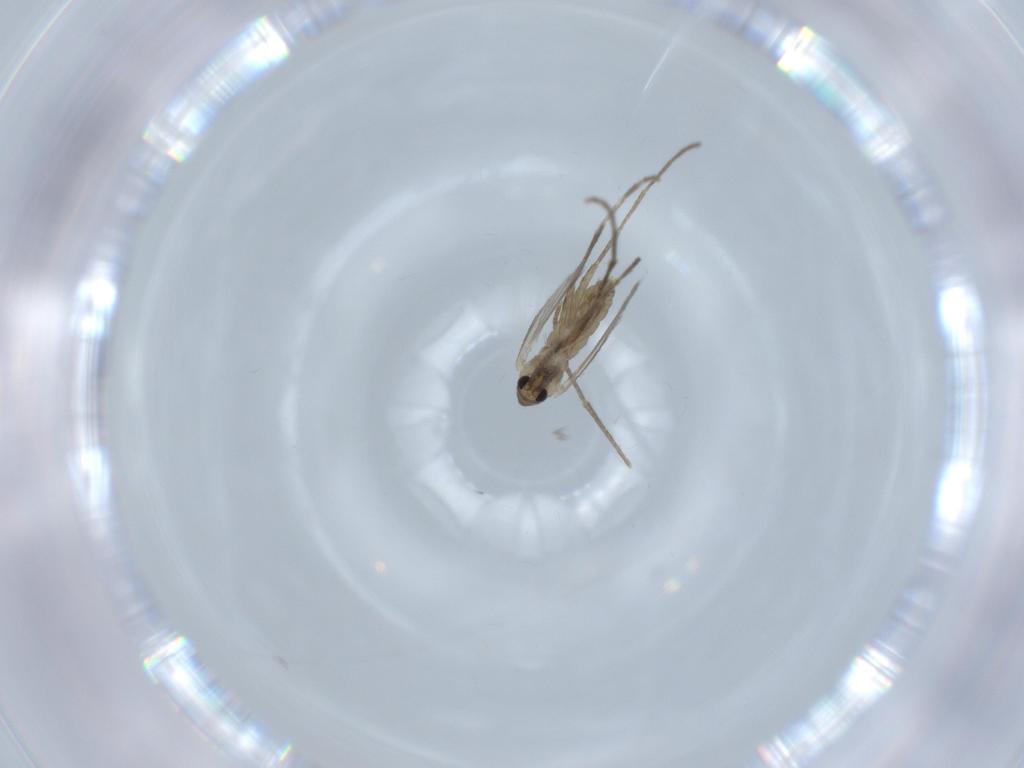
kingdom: Animalia
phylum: Arthropoda
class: Insecta
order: Diptera
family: Psychodidae
